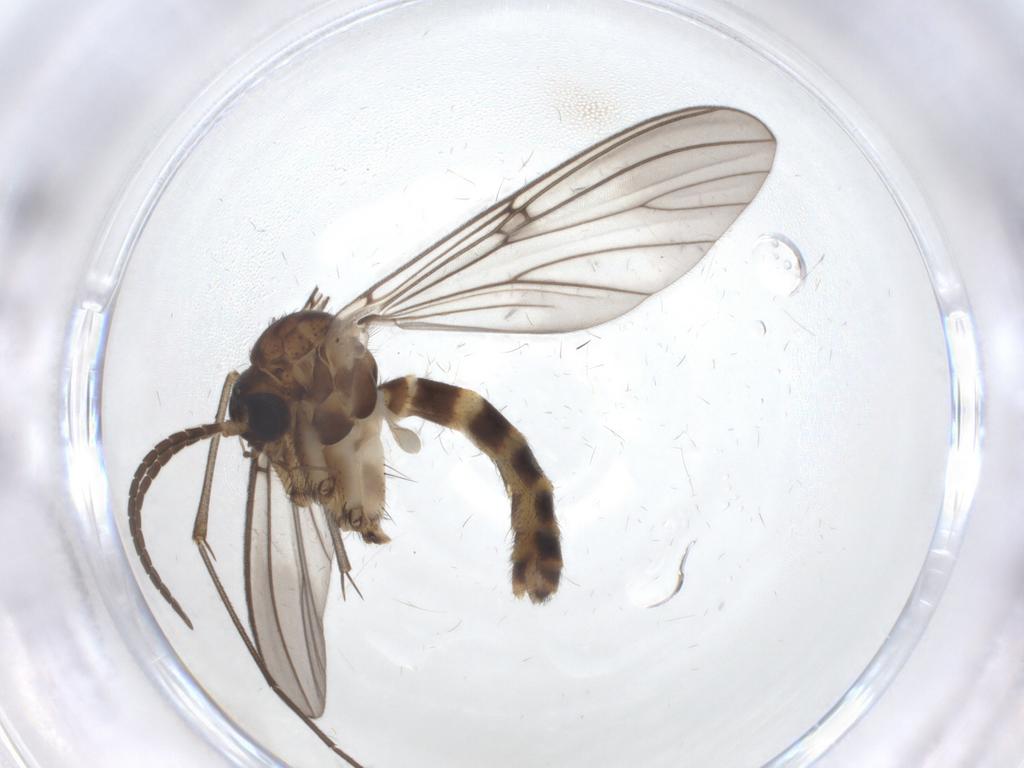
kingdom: Animalia
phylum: Arthropoda
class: Insecta
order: Diptera
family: Mycetophilidae
